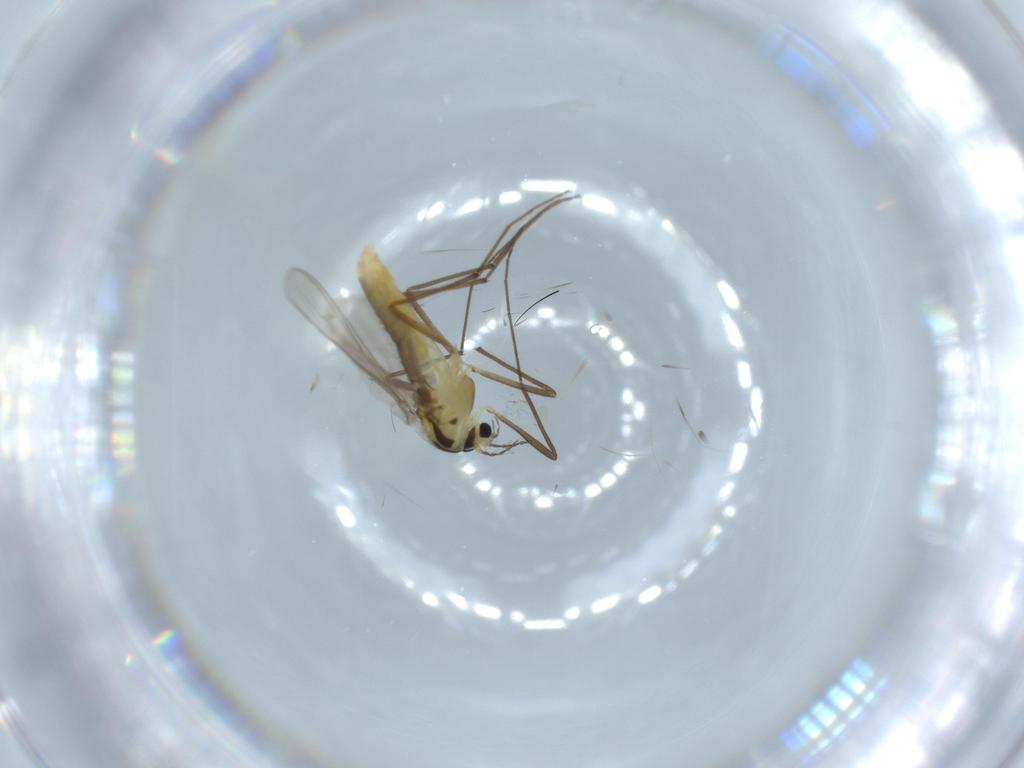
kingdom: Animalia
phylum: Arthropoda
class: Insecta
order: Diptera
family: Chironomidae
